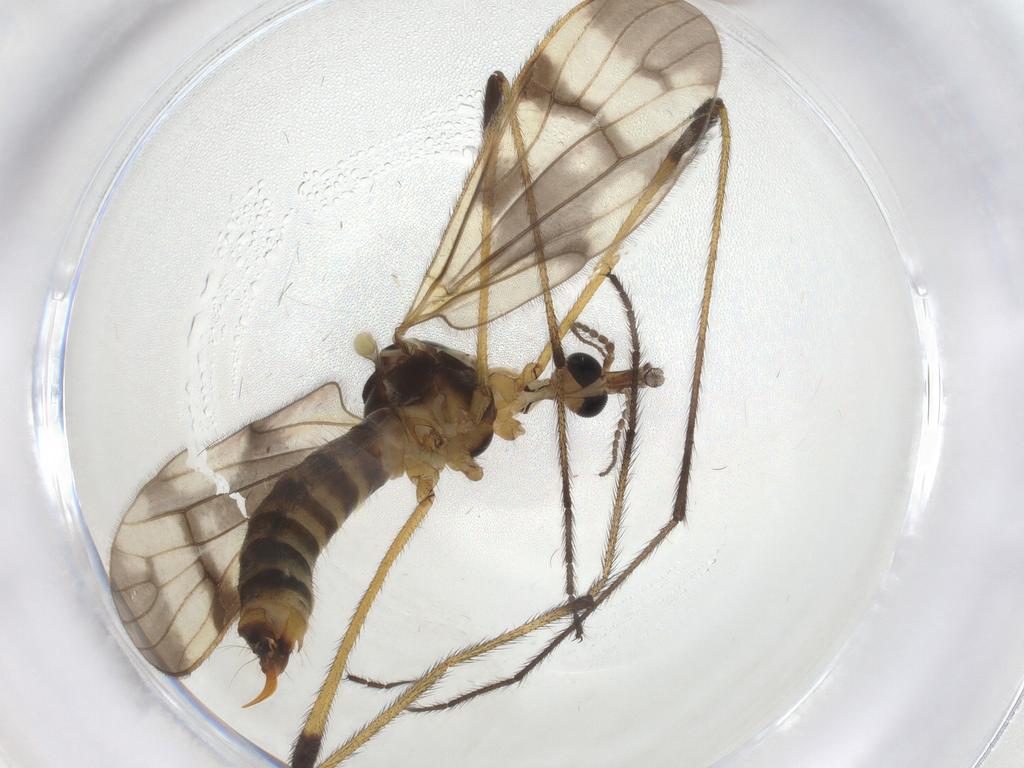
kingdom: Animalia
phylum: Arthropoda
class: Insecta
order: Diptera
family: Limoniidae
